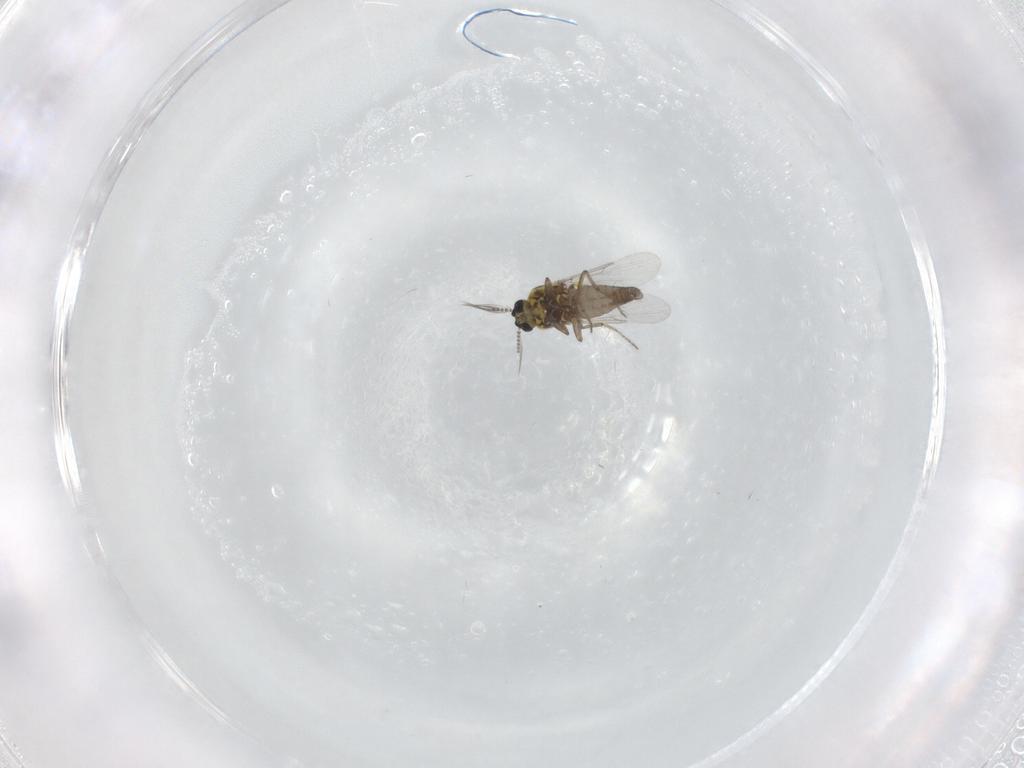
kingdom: Animalia
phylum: Arthropoda
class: Insecta
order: Diptera
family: Ceratopogonidae
